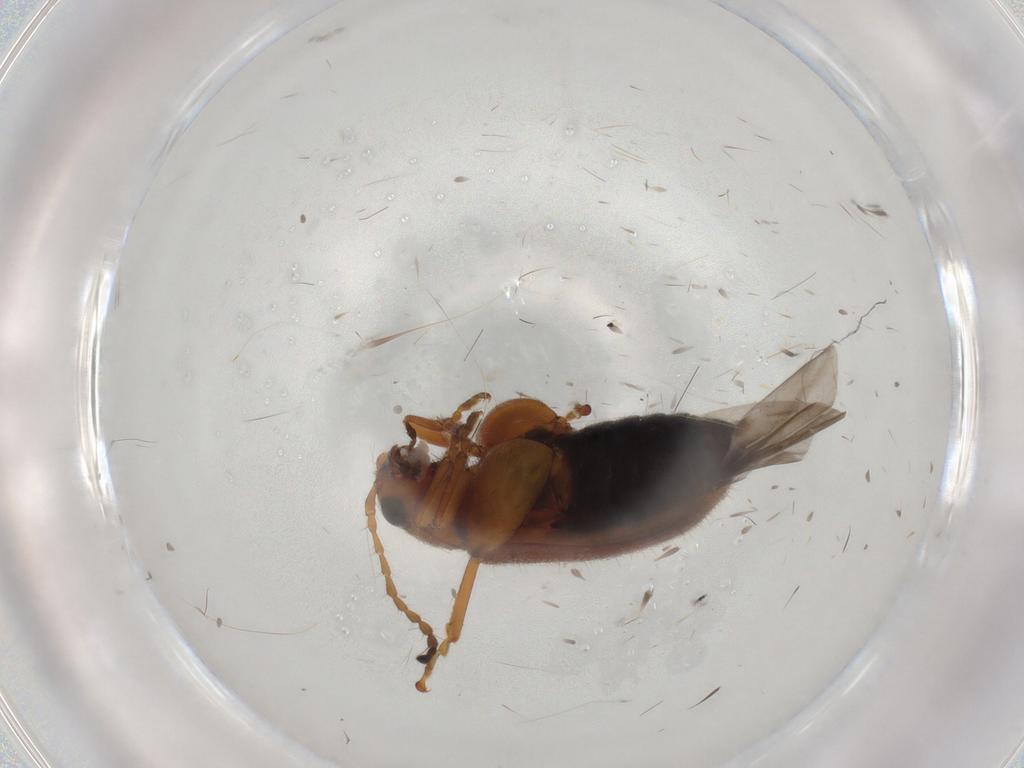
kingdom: Animalia
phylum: Arthropoda
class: Insecta
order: Coleoptera
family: Chrysomelidae
